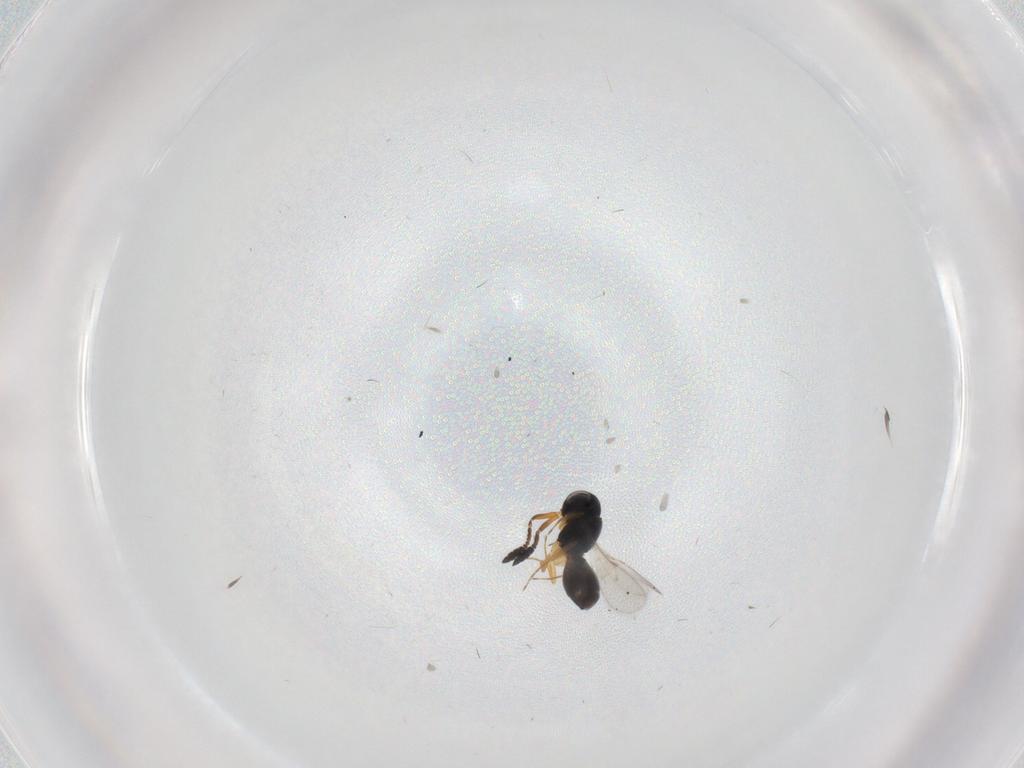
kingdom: Animalia
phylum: Arthropoda
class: Insecta
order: Hymenoptera
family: Scelionidae
